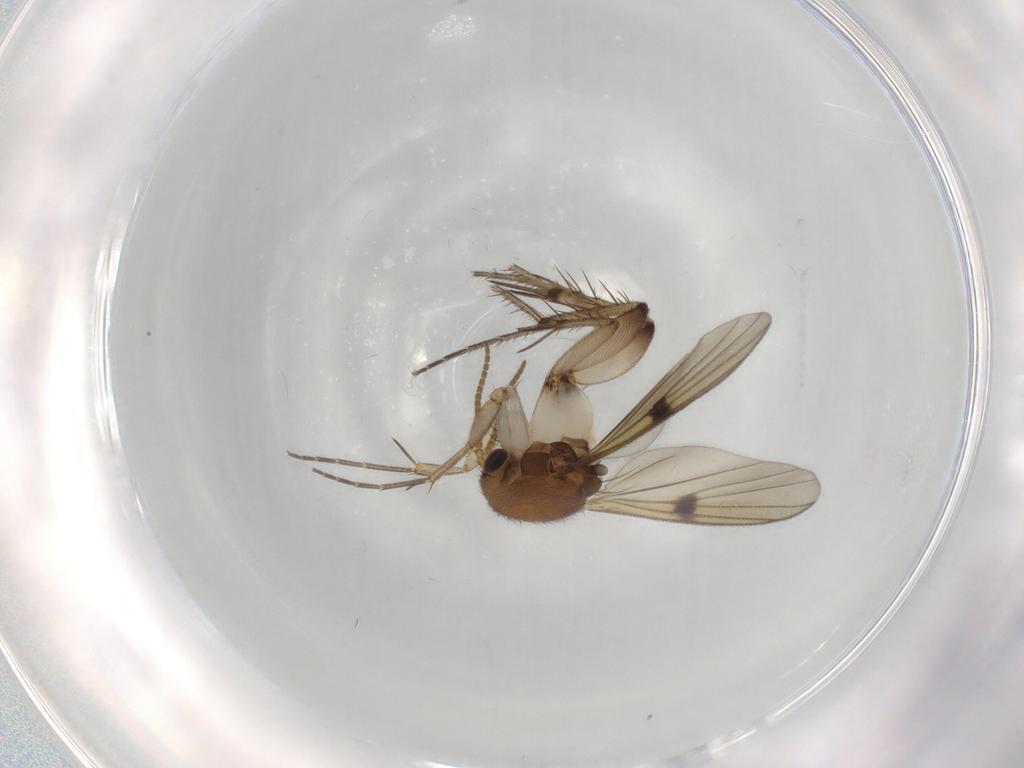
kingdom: Animalia
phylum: Arthropoda
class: Insecta
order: Diptera
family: Mycetophilidae
